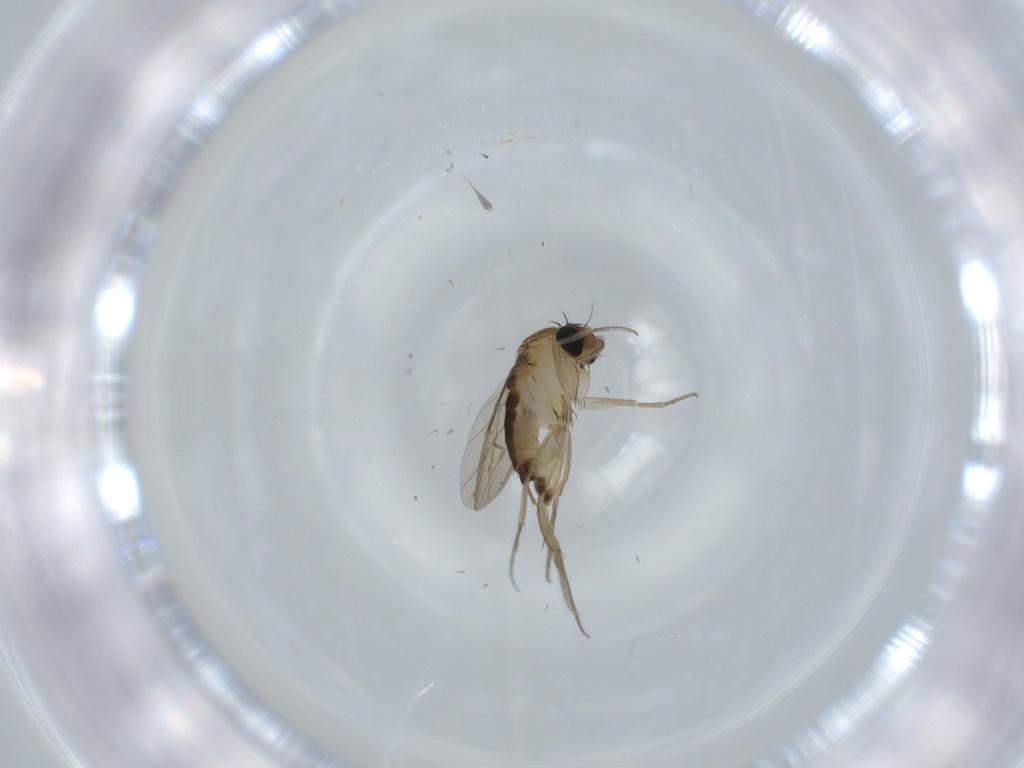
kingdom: Animalia
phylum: Arthropoda
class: Insecta
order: Diptera
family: Phoridae
